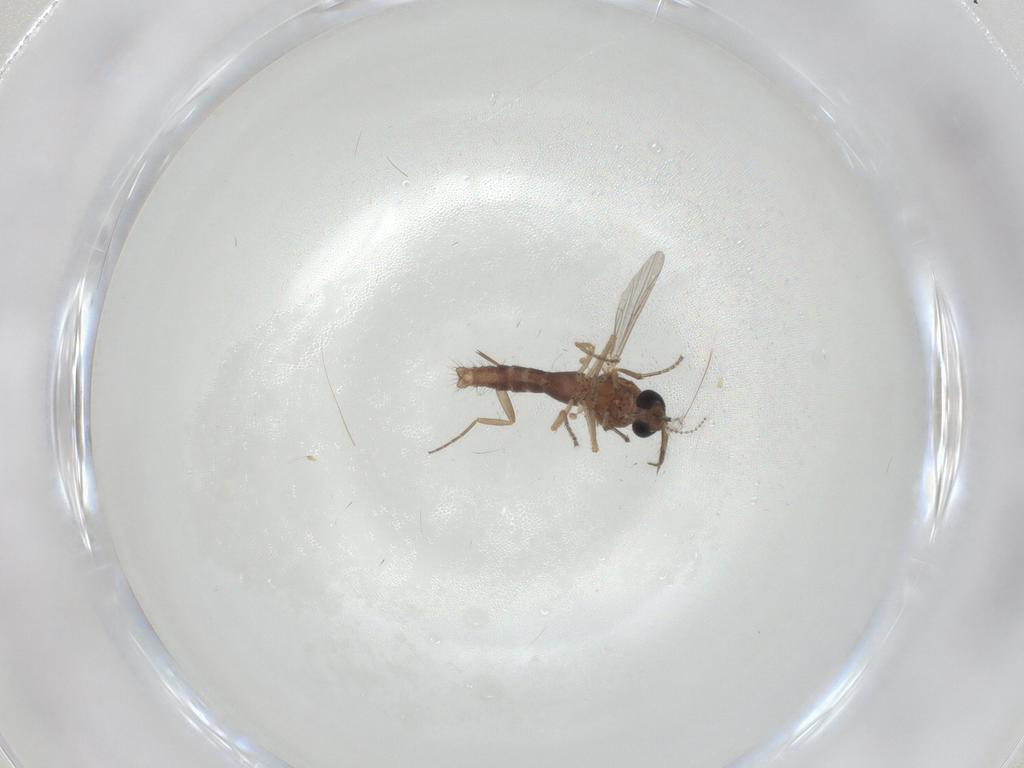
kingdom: Animalia
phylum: Arthropoda
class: Insecta
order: Diptera
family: Ceratopogonidae
